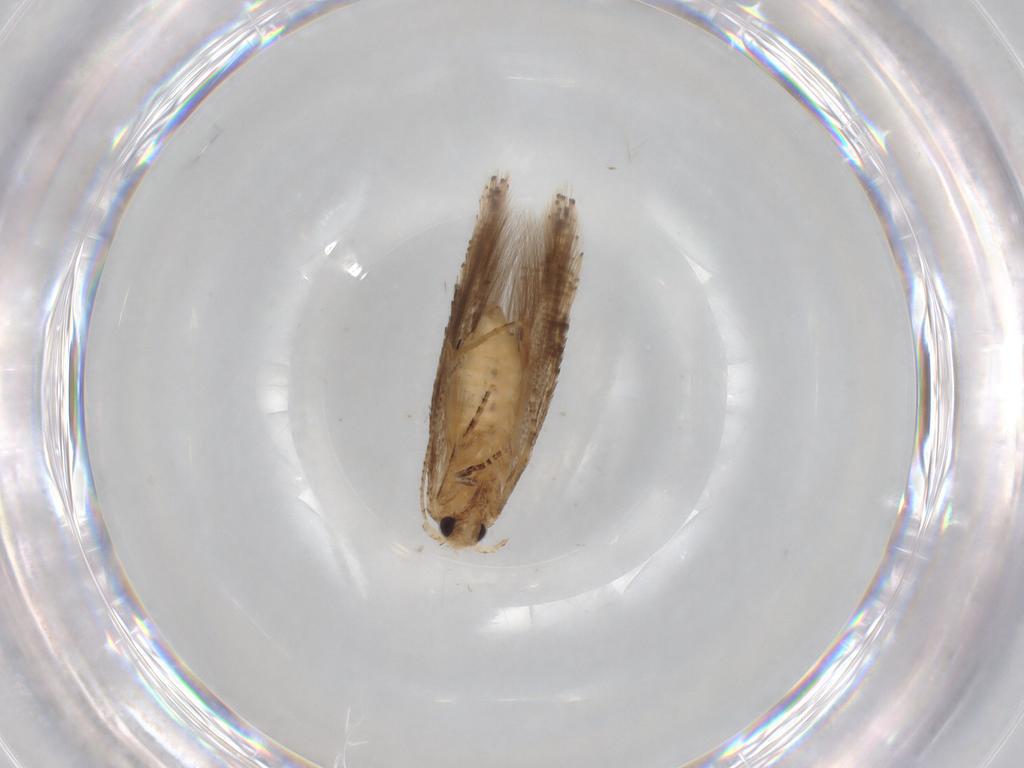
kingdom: Animalia
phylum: Arthropoda
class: Insecta
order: Lepidoptera
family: Bucculatricidae
